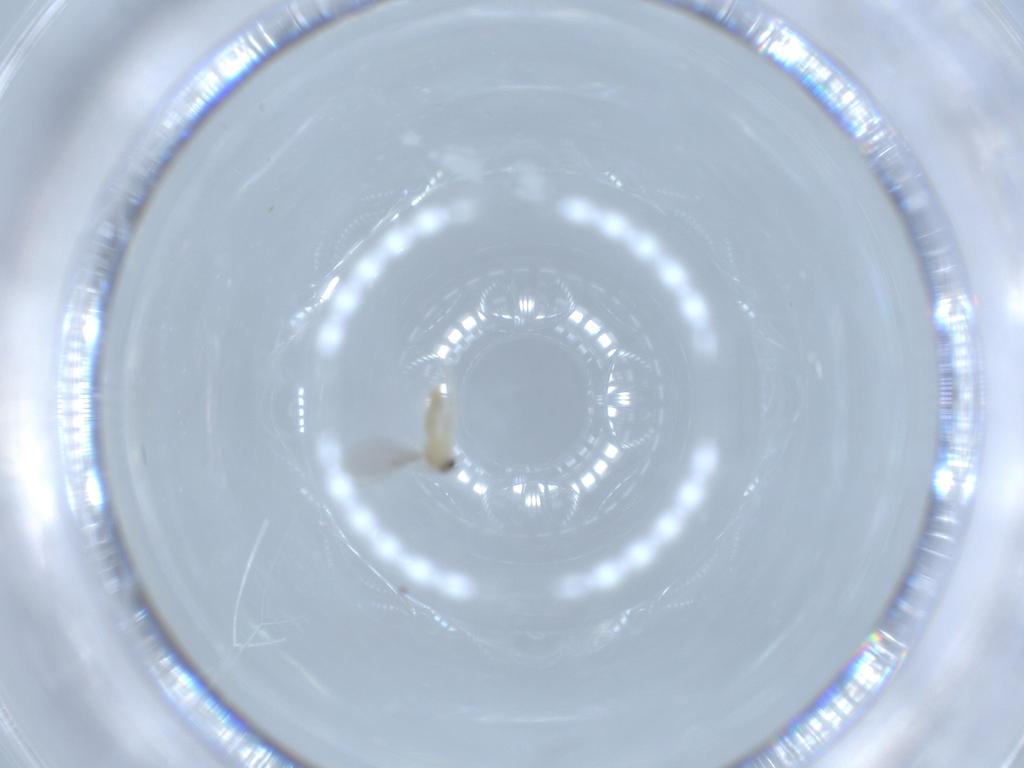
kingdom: Animalia
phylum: Arthropoda
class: Insecta
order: Diptera
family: Cecidomyiidae
